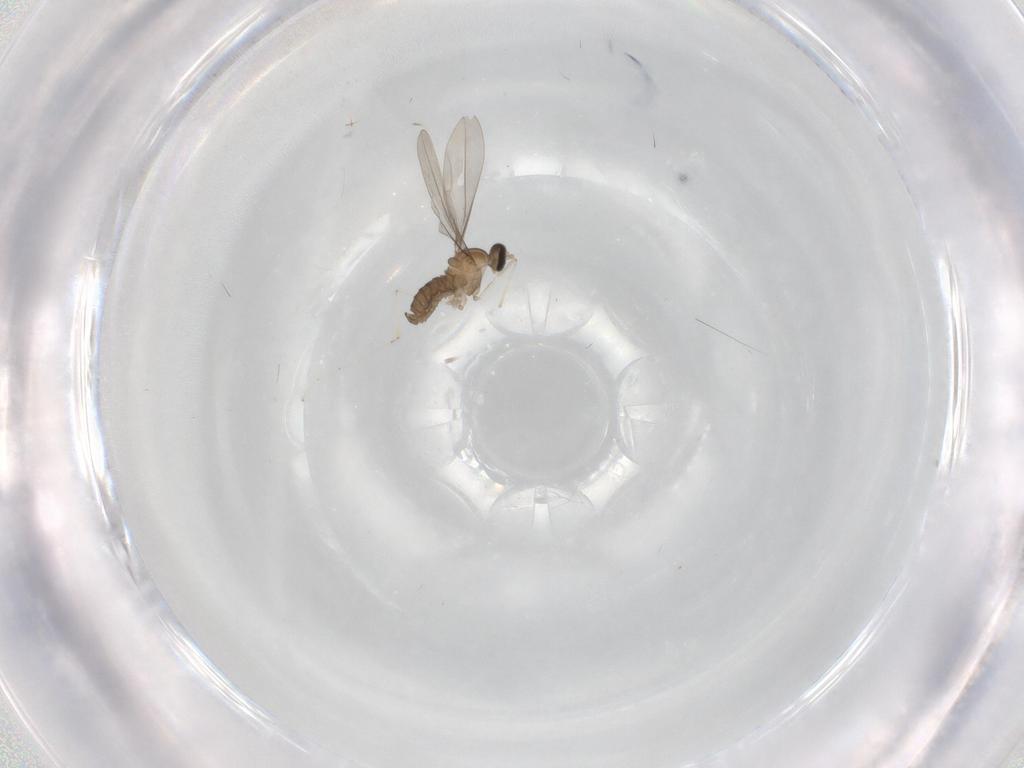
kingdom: Animalia
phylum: Arthropoda
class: Insecta
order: Diptera
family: Cecidomyiidae
